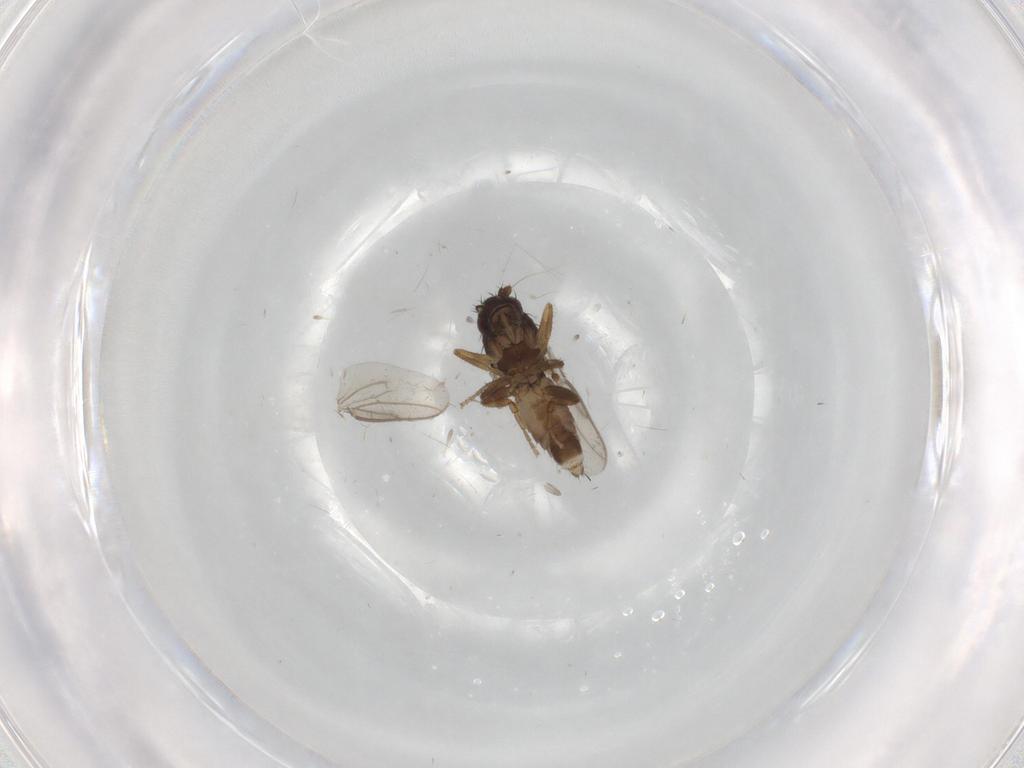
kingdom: Animalia
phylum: Arthropoda
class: Insecta
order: Diptera
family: Sphaeroceridae
